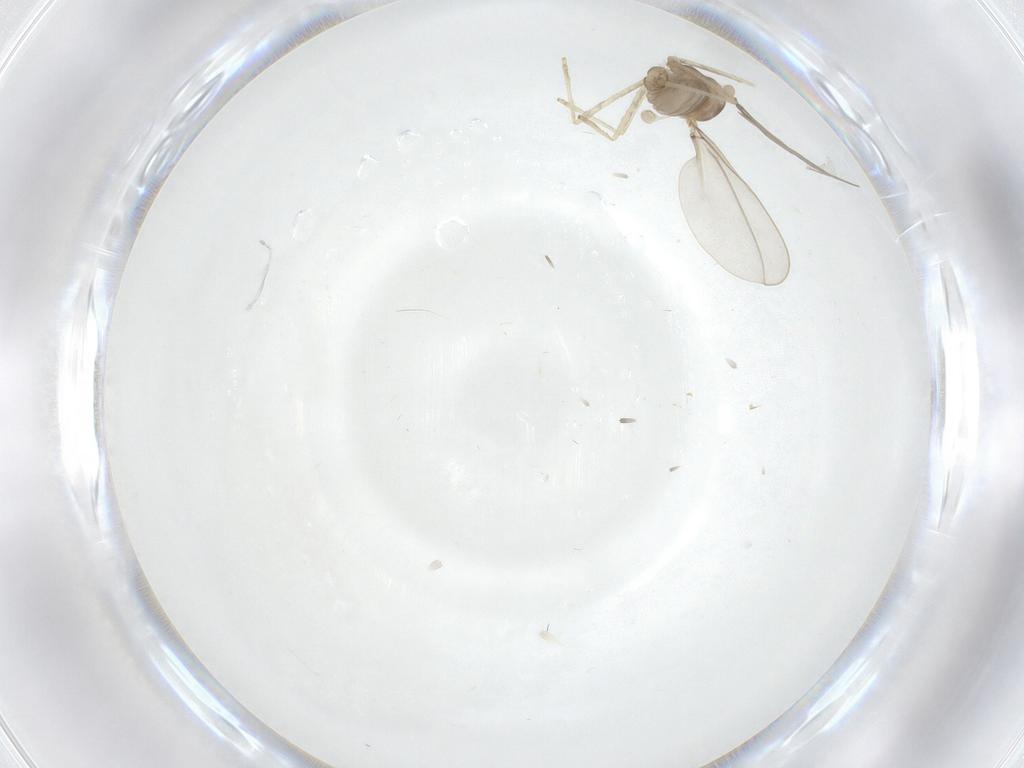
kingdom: Animalia
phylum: Arthropoda
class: Insecta
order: Diptera
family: Cecidomyiidae
